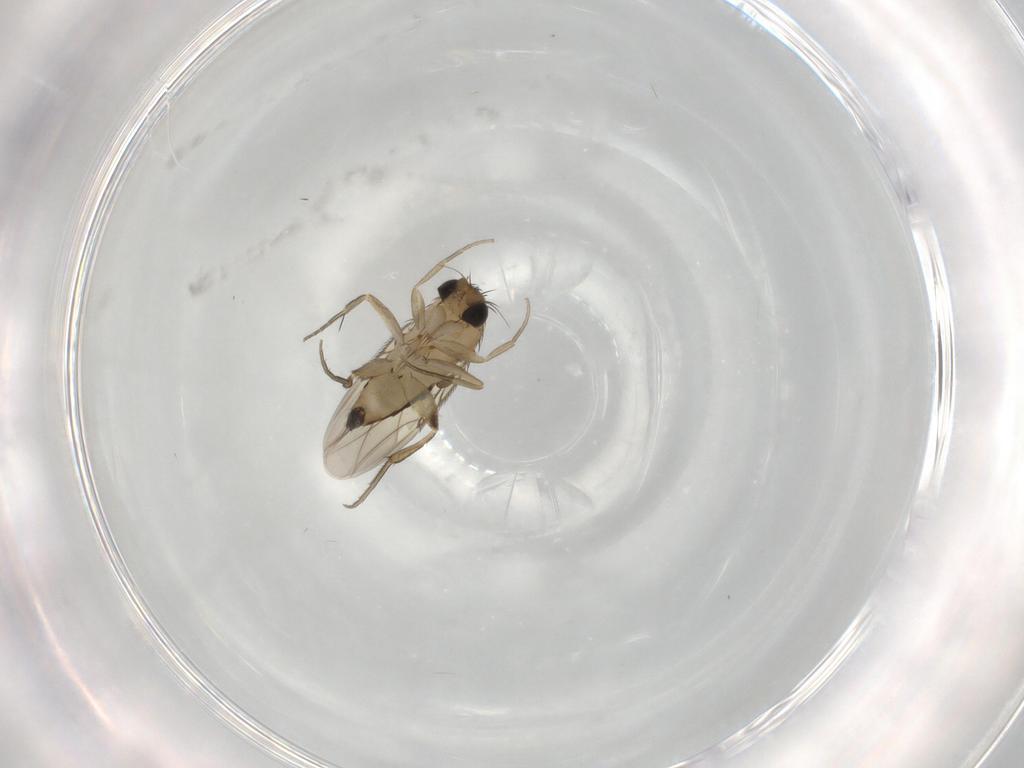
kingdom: Animalia
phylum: Arthropoda
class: Insecta
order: Diptera
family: Phoridae
